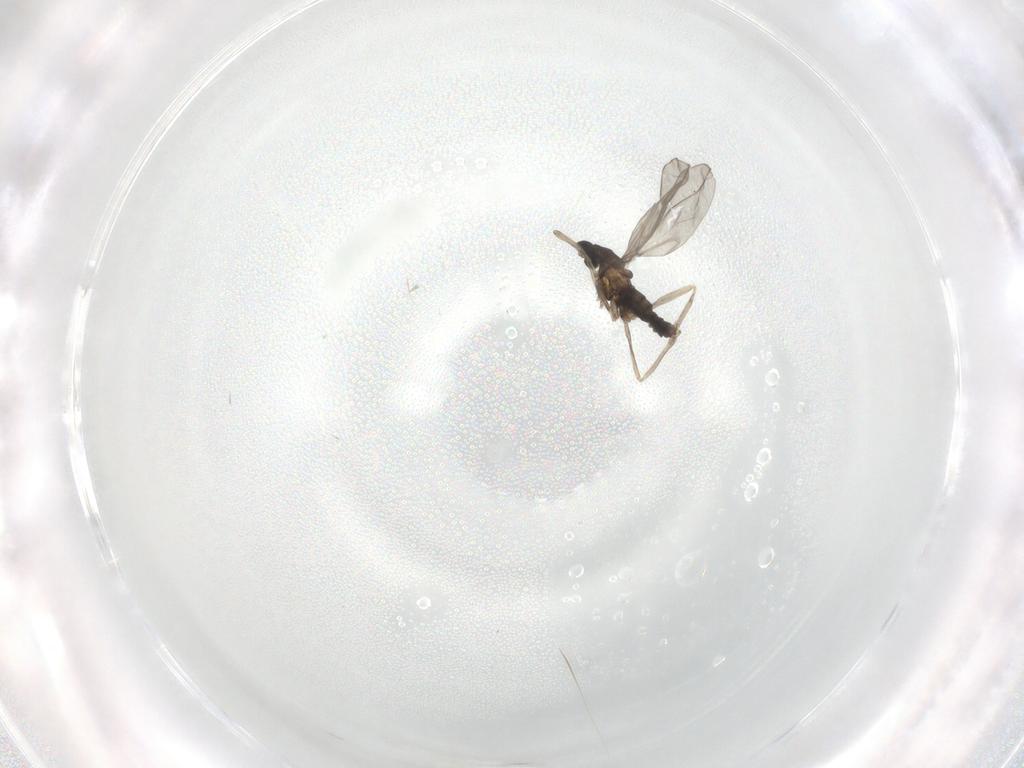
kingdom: Animalia
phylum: Arthropoda
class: Insecta
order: Diptera
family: Cecidomyiidae
